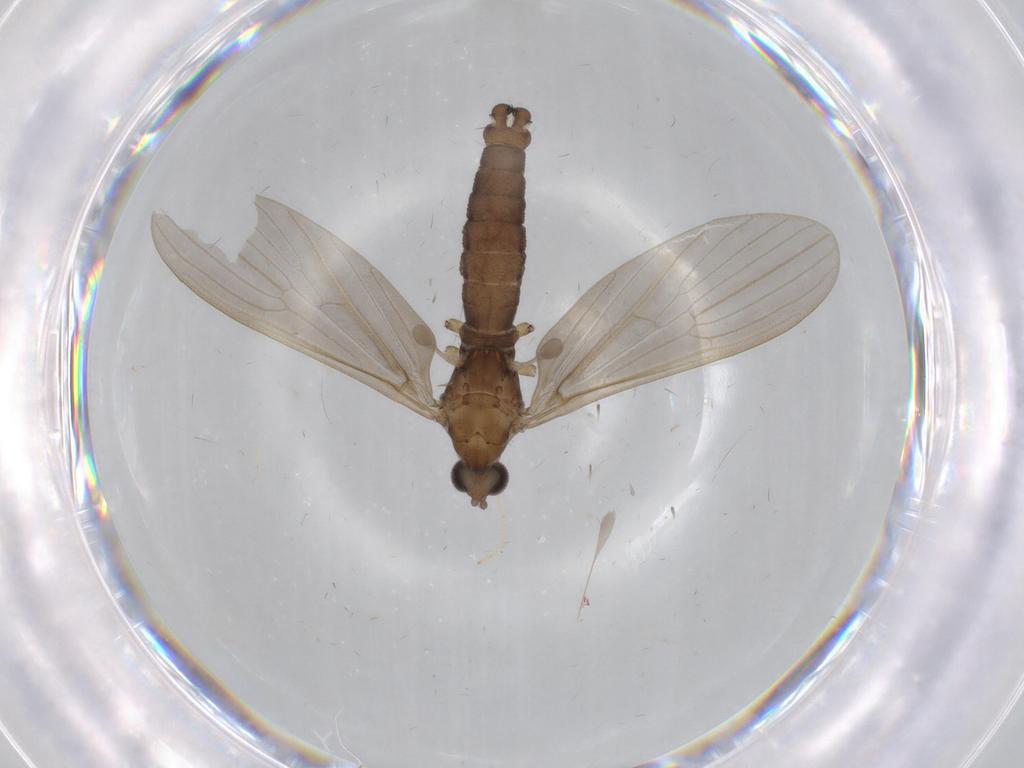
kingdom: Animalia
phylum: Arthropoda
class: Insecta
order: Diptera
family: Empididae
